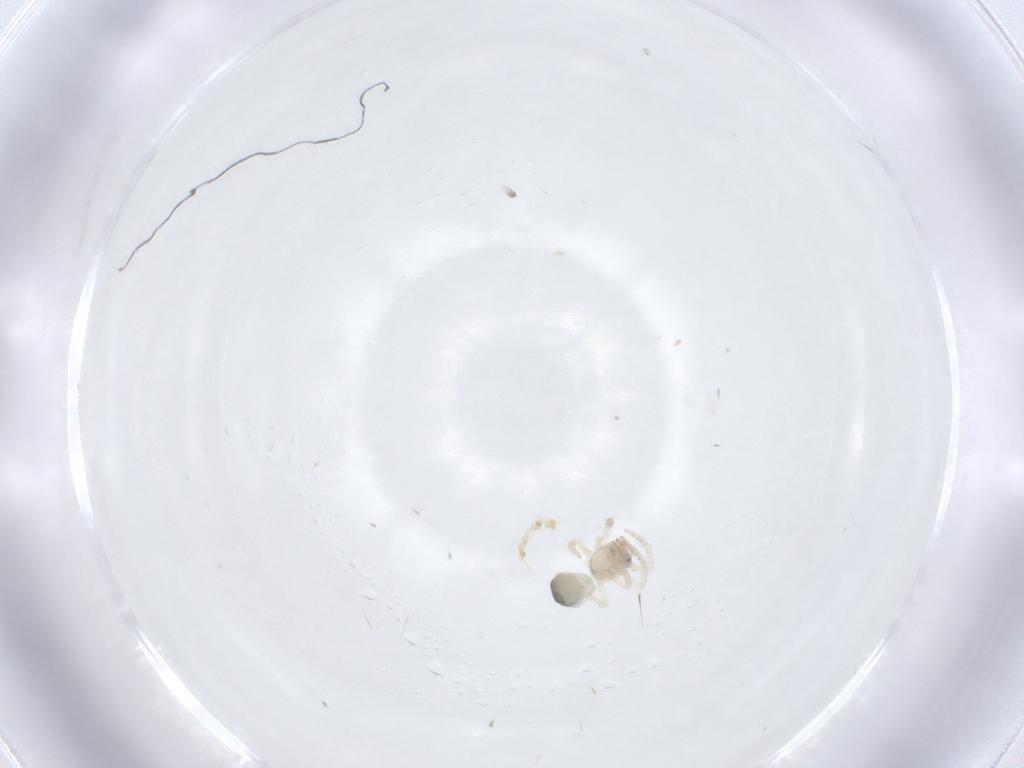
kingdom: Animalia
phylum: Arthropoda
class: Arachnida
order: Araneae
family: Theridiidae
